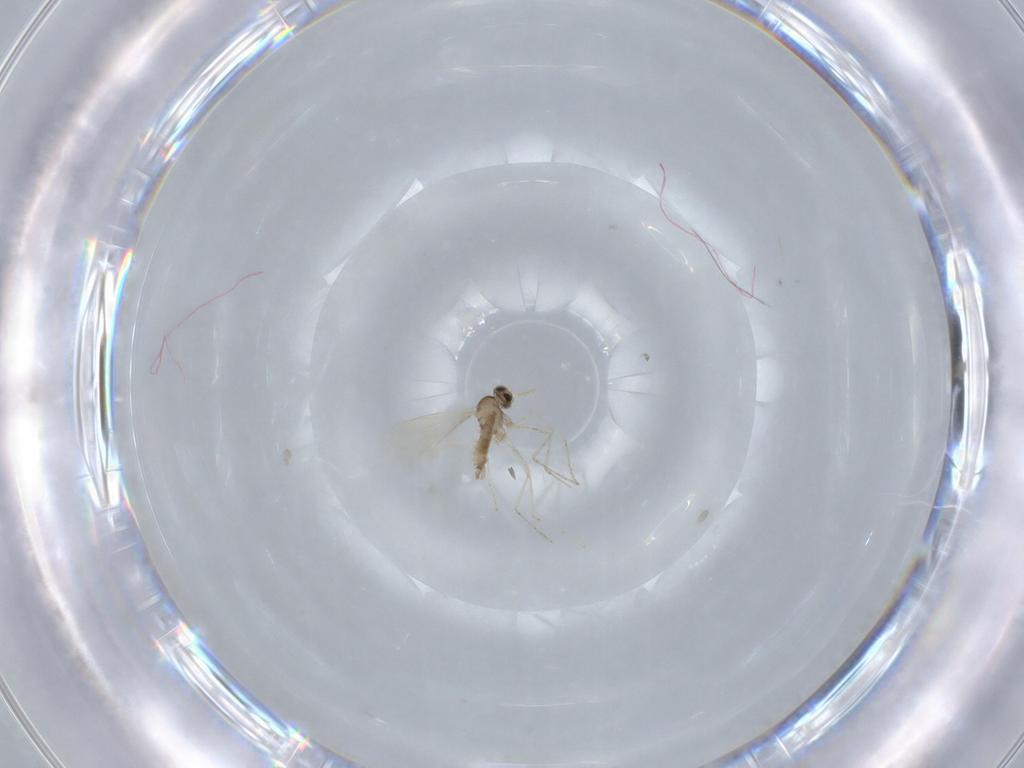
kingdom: Animalia
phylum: Arthropoda
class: Insecta
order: Diptera
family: Cecidomyiidae
